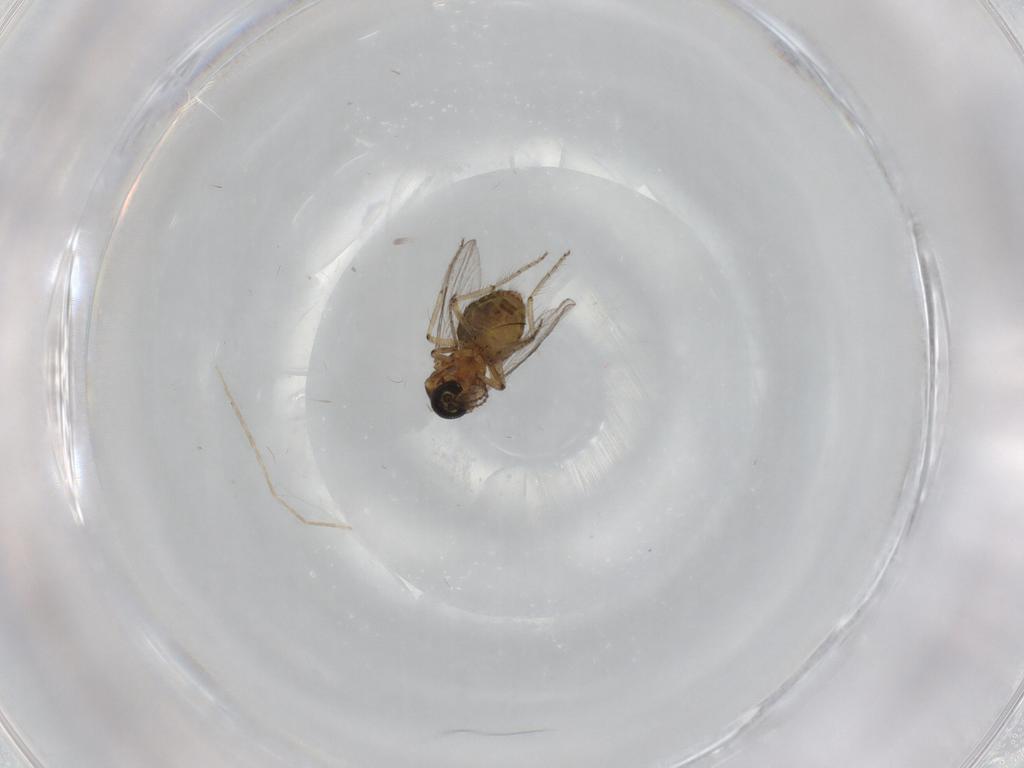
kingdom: Animalia
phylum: Arthropoda
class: Insecta
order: Diptera
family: Ceratopogonidae
